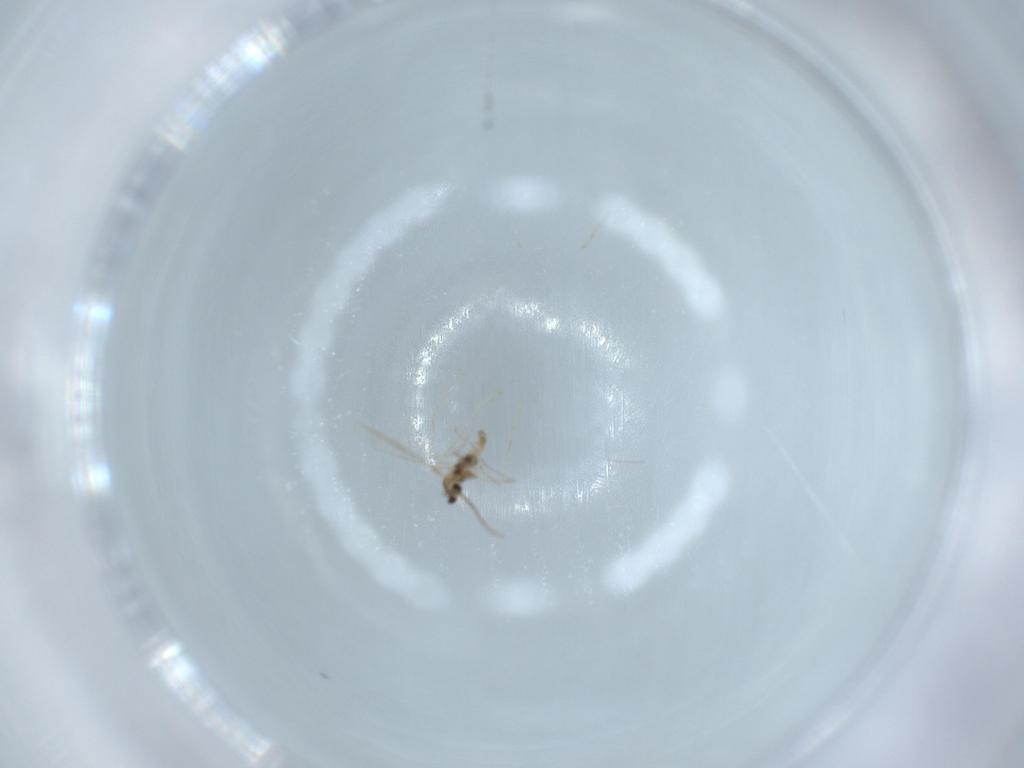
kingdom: Animalia
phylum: Arthropoda
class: Insecta
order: Diptera
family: Cecidomyiidae
